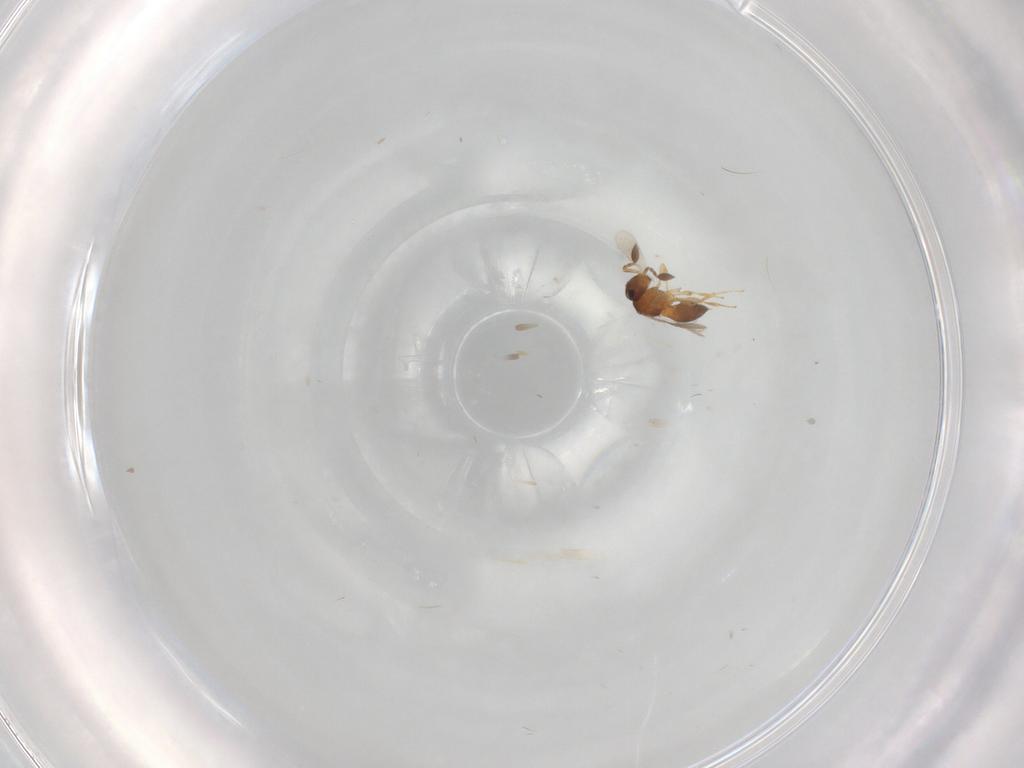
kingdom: Animalia
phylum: Arthropoda
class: Insecta
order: Hymenoptera
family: Scelionidae
